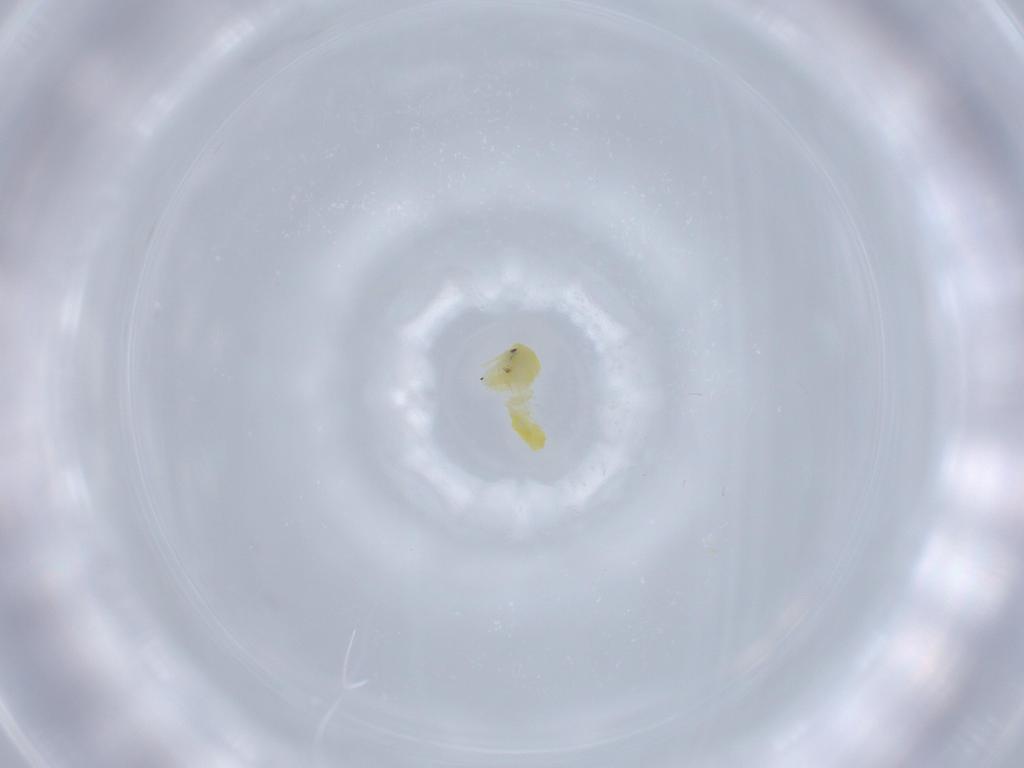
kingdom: Animalia
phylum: Arthropoda
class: Insecta
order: Hemiptera
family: Aleyrodidae
